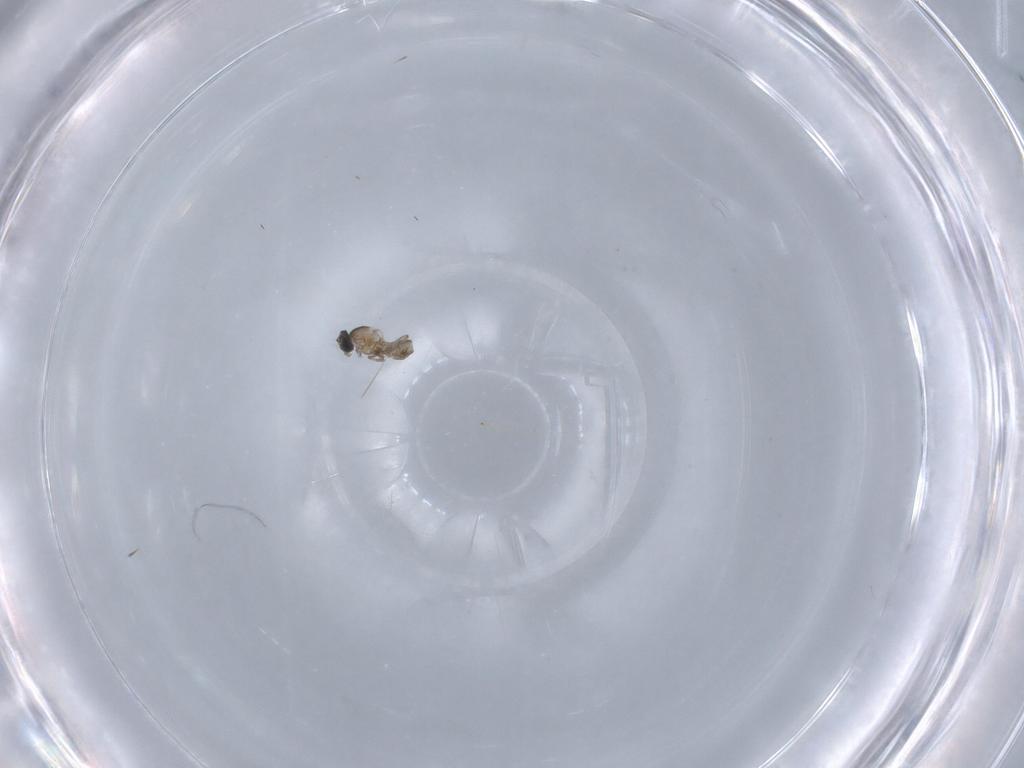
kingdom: Animalia
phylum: Arthropoda
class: Insecta
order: Diptera
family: Cecidomyiidae
